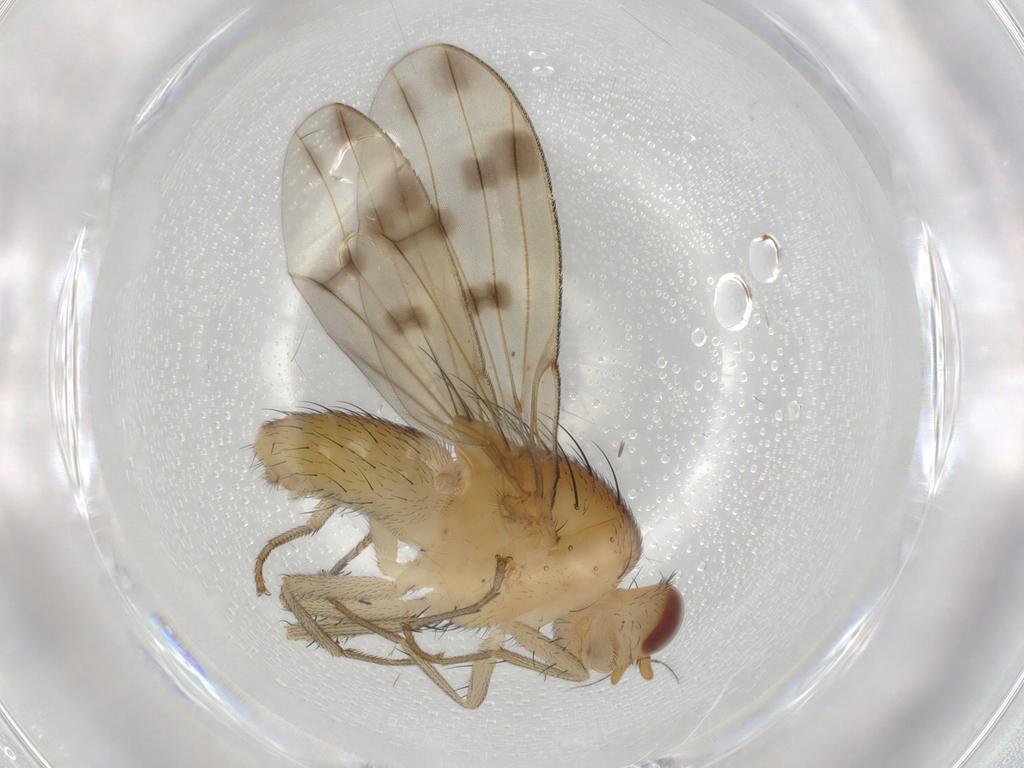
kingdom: Animalia
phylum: Arthropoda
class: Insecta
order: Diptera
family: Chironomidae
